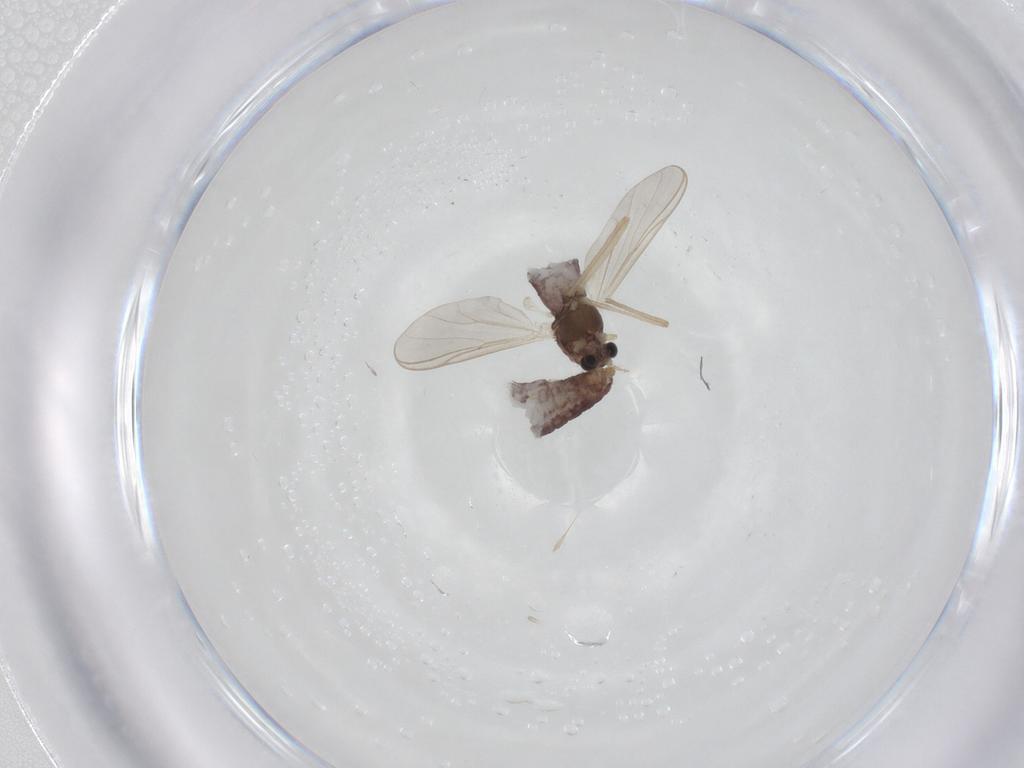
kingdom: Animalia
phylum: Arthropoda
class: Insecta
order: Diptera
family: Chironomidae
